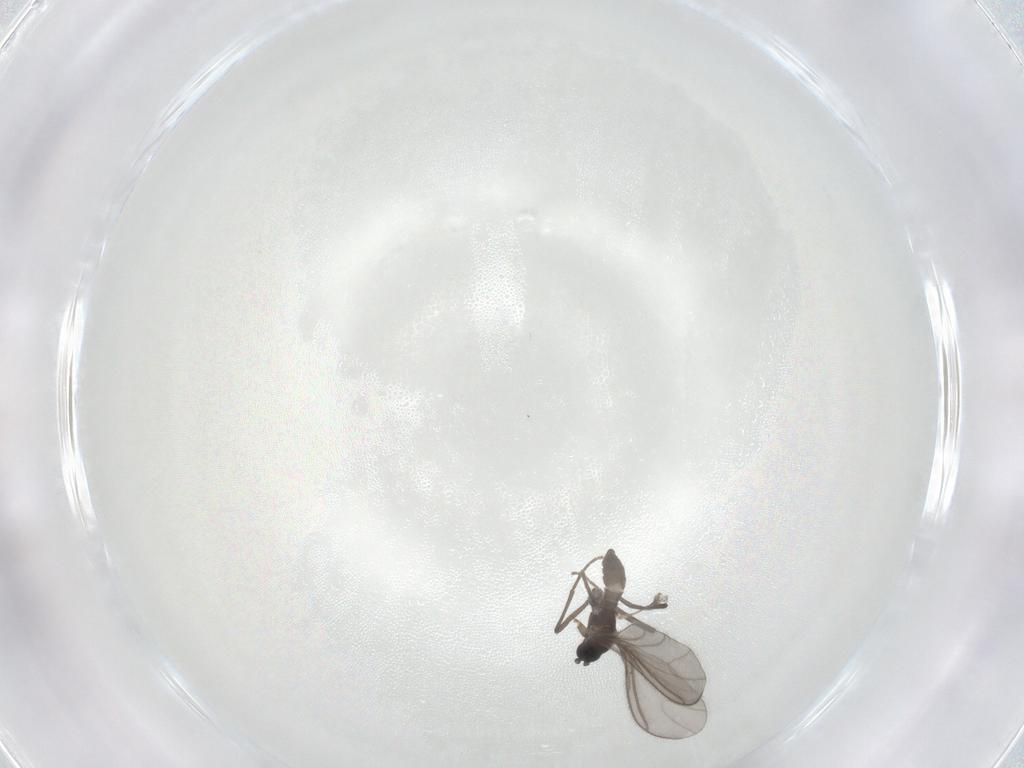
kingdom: Animalia
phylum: Arthropoda
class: Insecta
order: Diptera
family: Sciaridae
